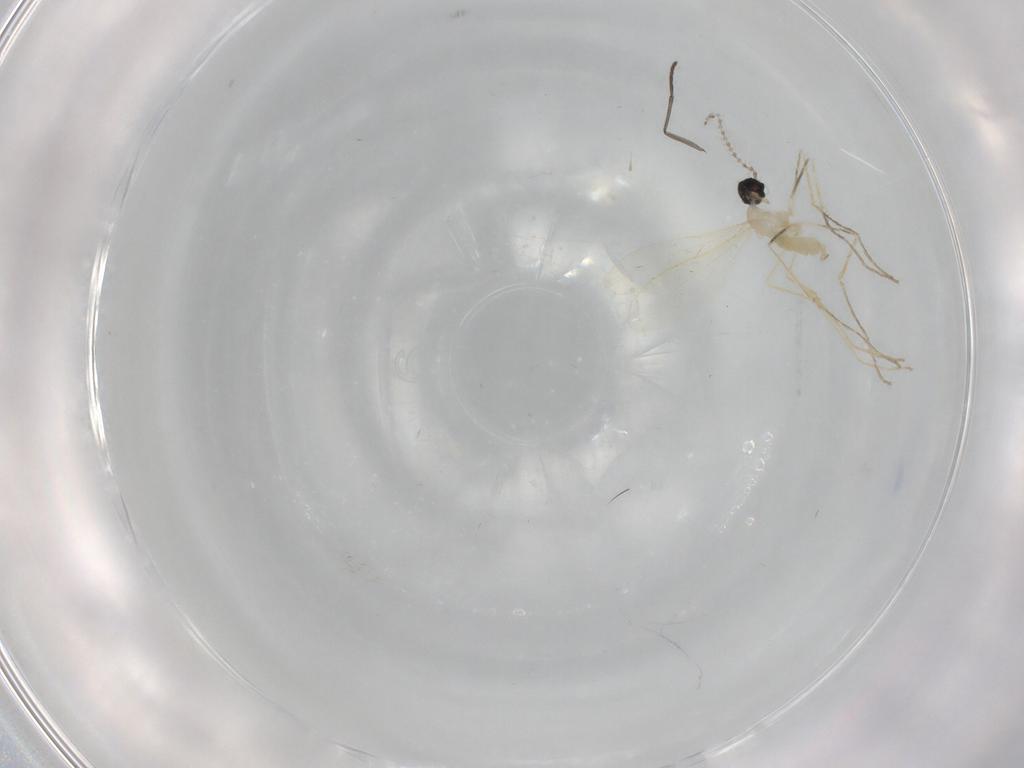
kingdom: Animalia
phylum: Arthropoda
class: Insecta
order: Diptera
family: Cecidomyiidae
